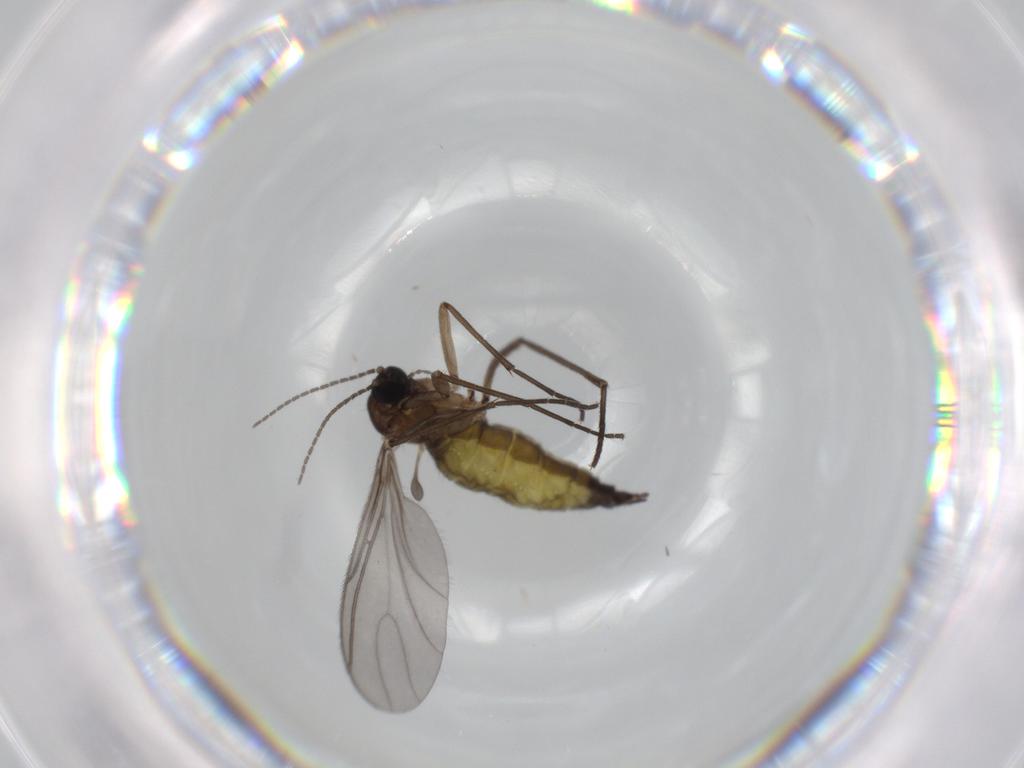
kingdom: Animalia
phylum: Arthropoda
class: Insecta
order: Diptera
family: Sciaridae
